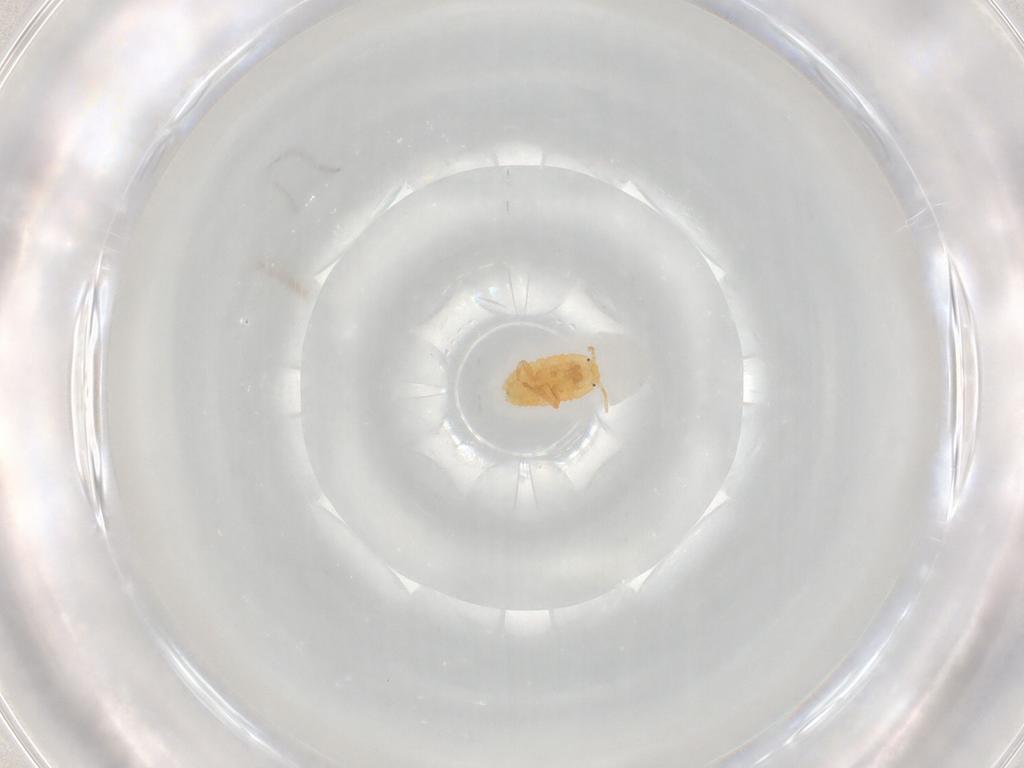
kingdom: Animalia
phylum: Arthropoda
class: Insecta
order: Hemiptera
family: Pseudococcidae
